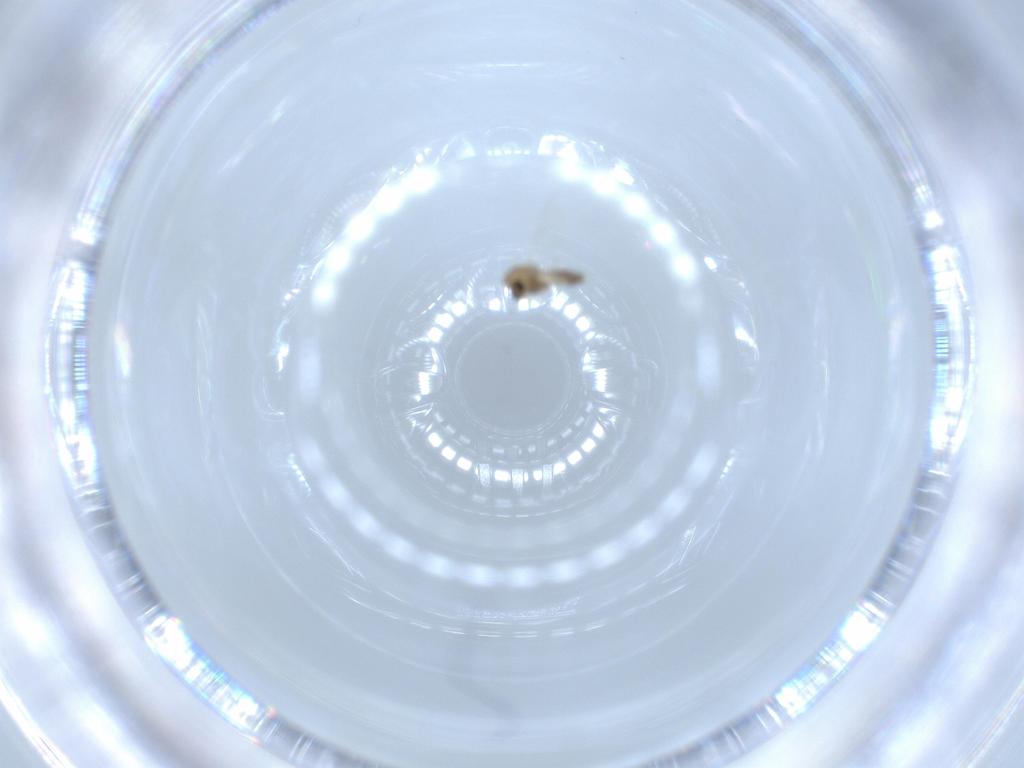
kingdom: Animalia
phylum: Arthropoda
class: Insecta
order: Diptera
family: Chironomidae
